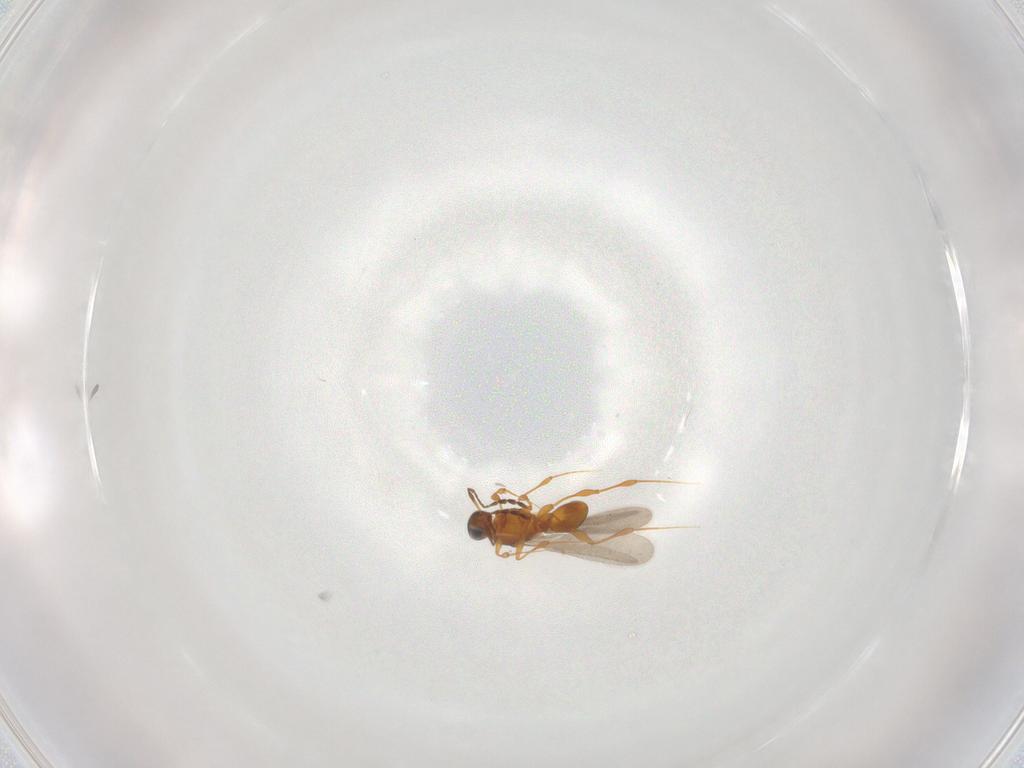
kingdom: Animalia
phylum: Arthropoda
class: Insecta
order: Hymenoptera
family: Platygastridae
